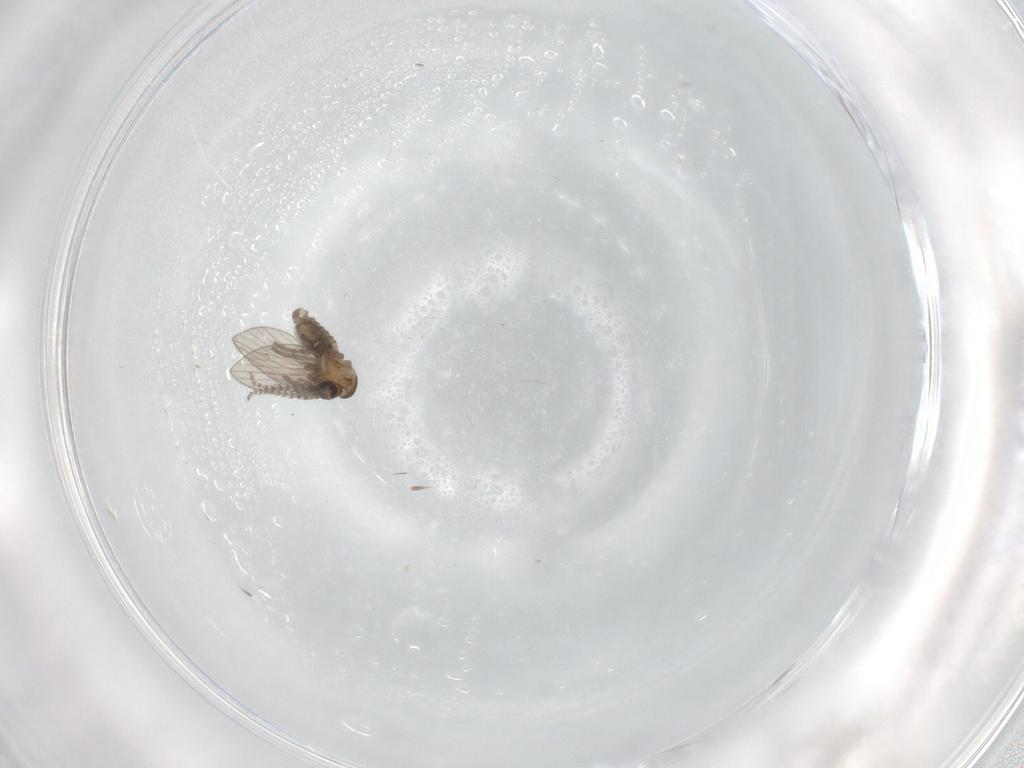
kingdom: Animalia
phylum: Arthropoda
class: Insecta
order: Diptera
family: Psychodidae
